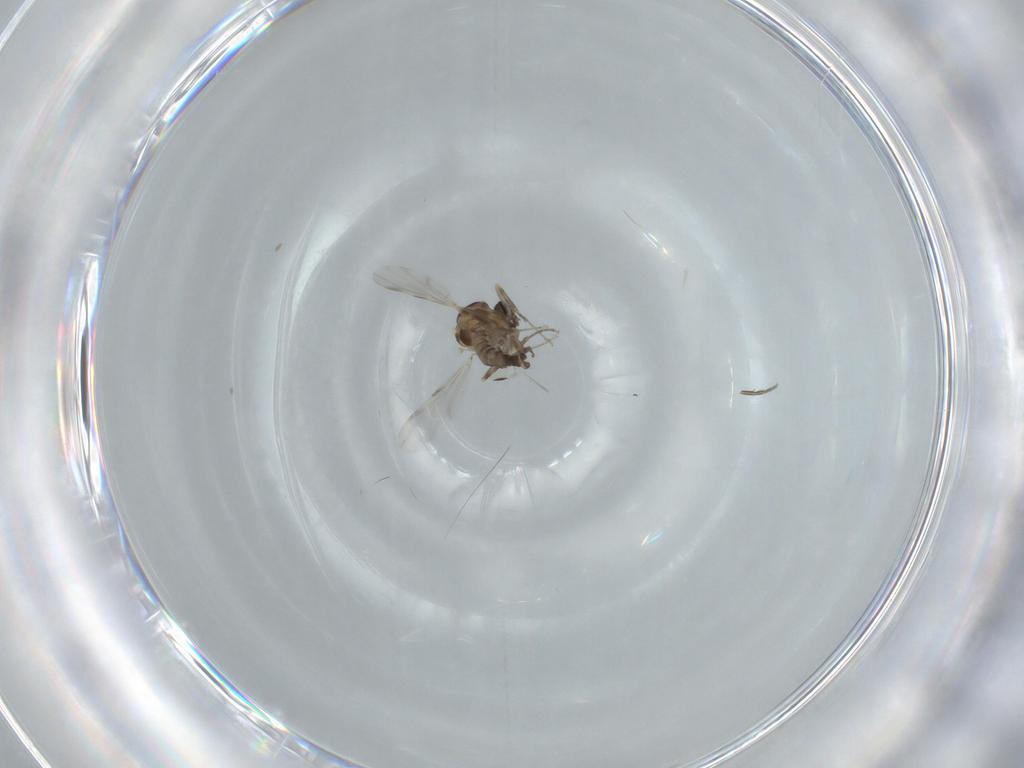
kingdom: Animalia
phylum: Arthropoda
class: Insecta
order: Diptera
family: Ceratopogonidae
